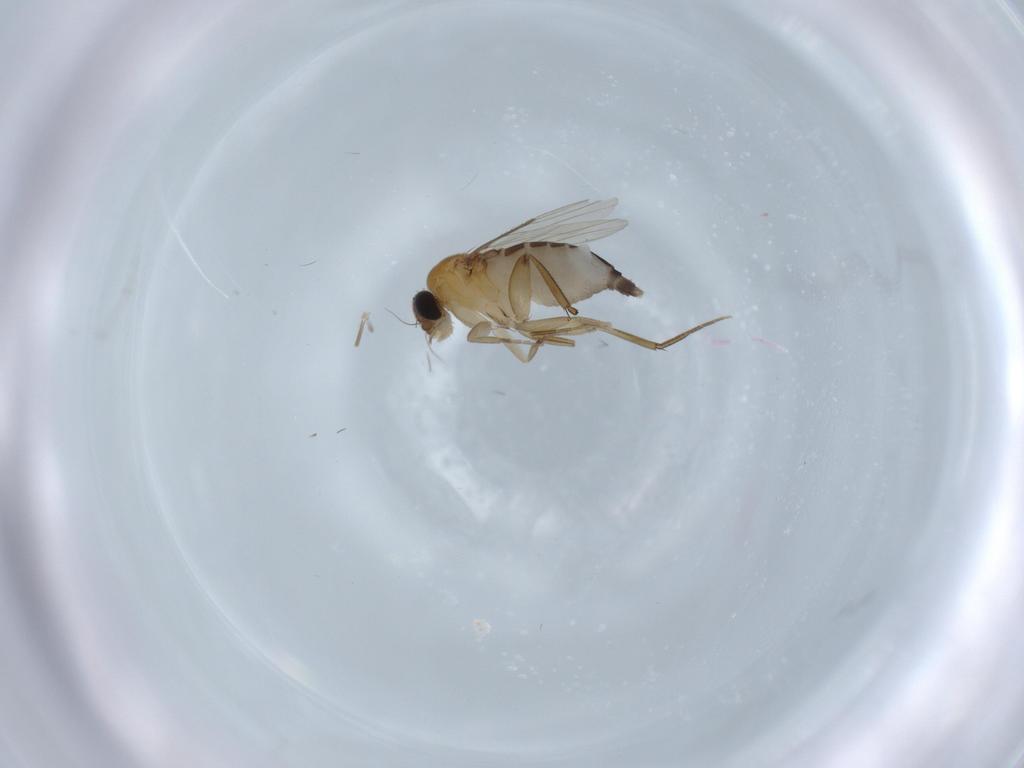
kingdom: Animalia
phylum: Arthropoda
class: Insecta
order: Diptera
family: Phoridae
